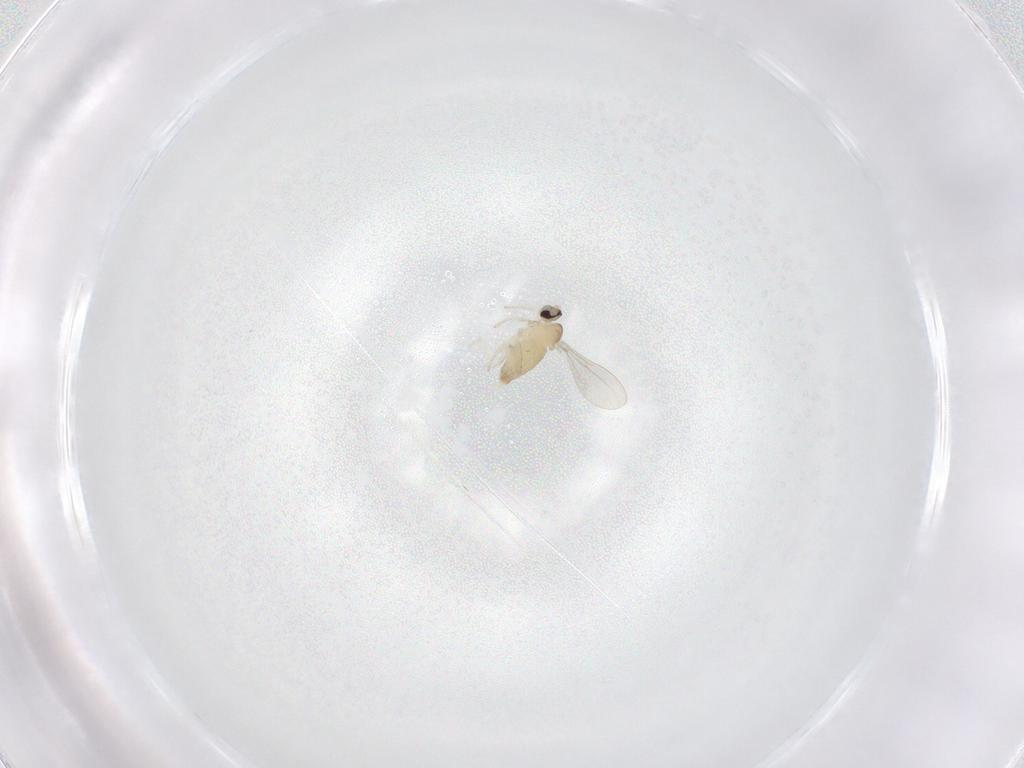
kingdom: Animalia
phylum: Arthropoda
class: Insecta
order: Diptera
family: Cecidomyiidae
